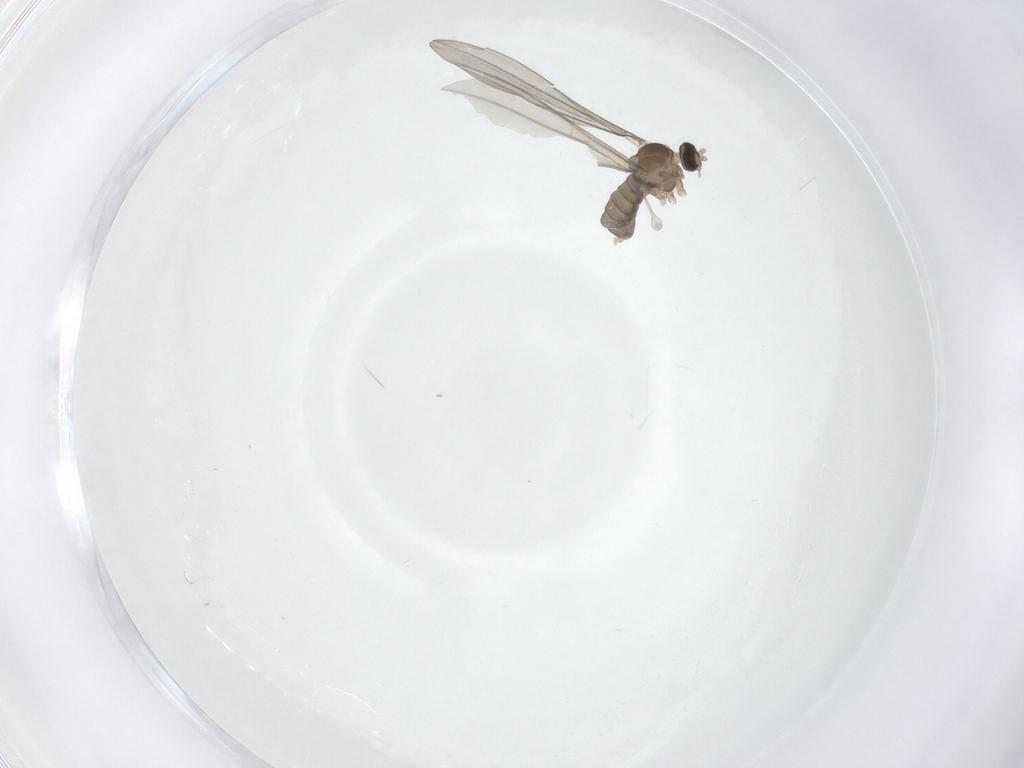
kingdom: Animalia
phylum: Arthropoda
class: Insecta
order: Diptera
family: Cecidomyiidae
